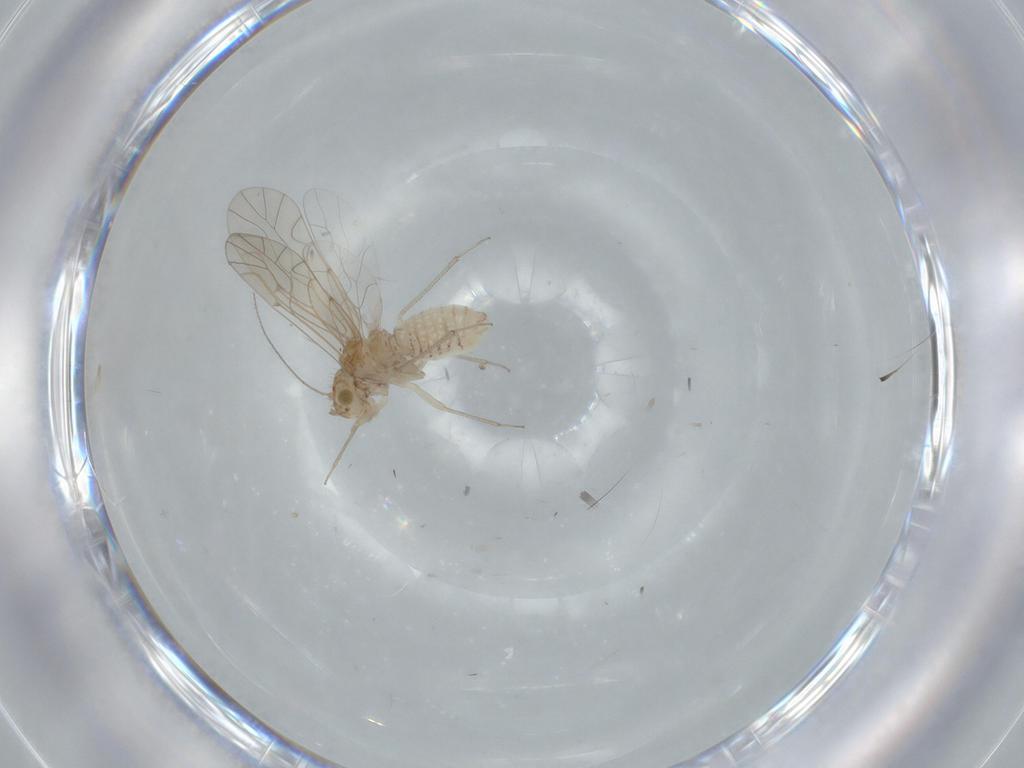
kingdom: Animalia
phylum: Arthropoda
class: Insecta
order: Psocodea
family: Lachesillidae
